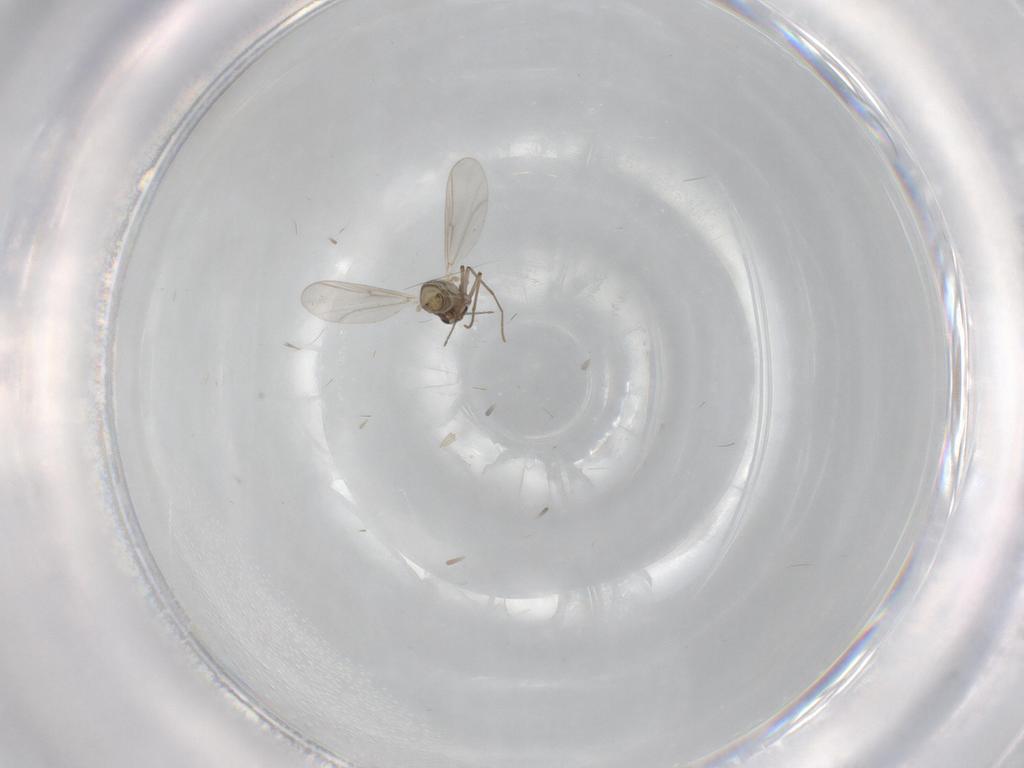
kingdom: Animalia
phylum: Arthropoda
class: Insecta
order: Diptera
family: Chironomidae
